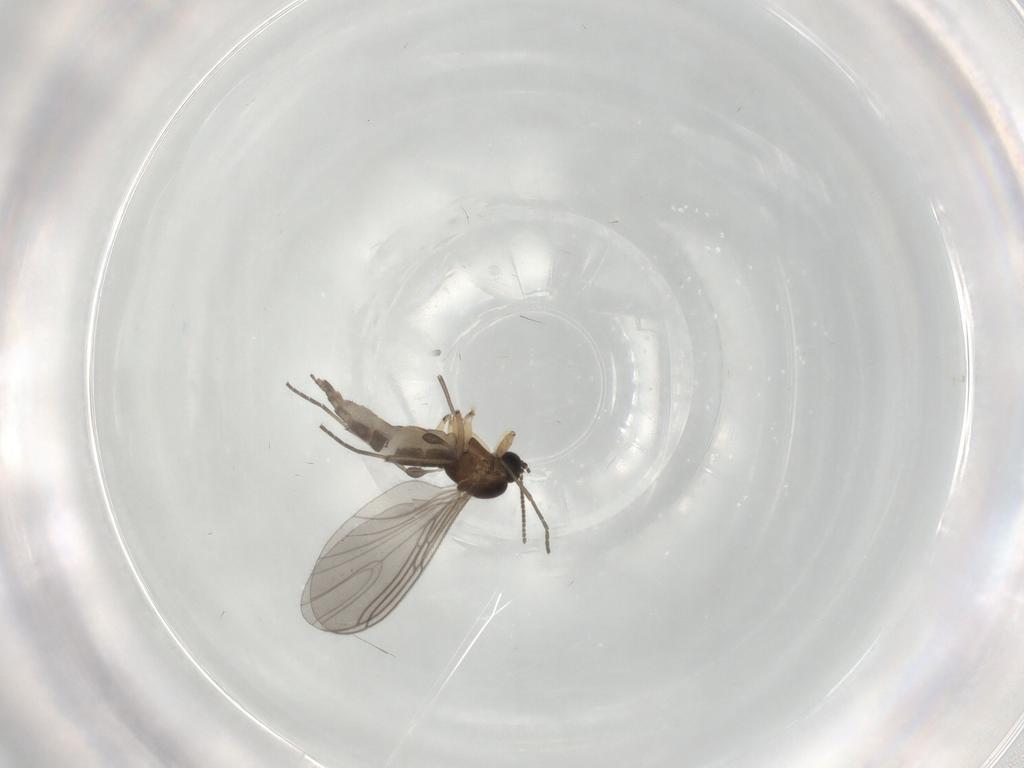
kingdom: Animalia
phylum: Arthropoda
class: Insecta
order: Diptera
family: Sciaridae
